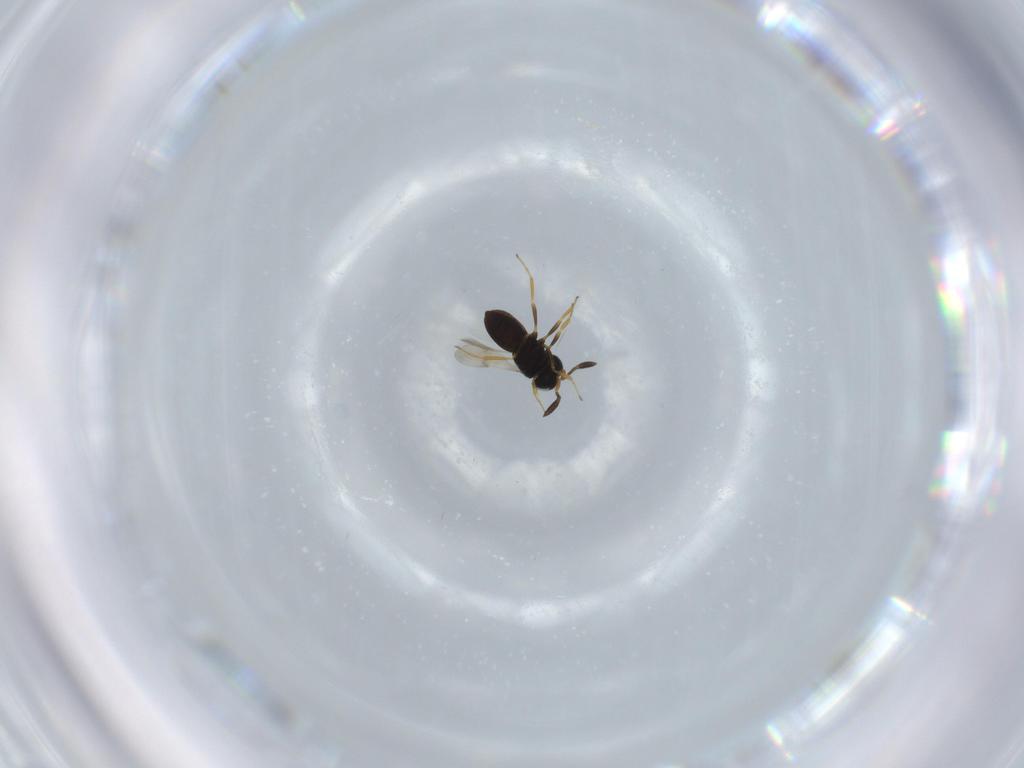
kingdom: Animalia
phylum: Arthropoda
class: Insecta
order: Hymenoptera
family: Scelionidae
